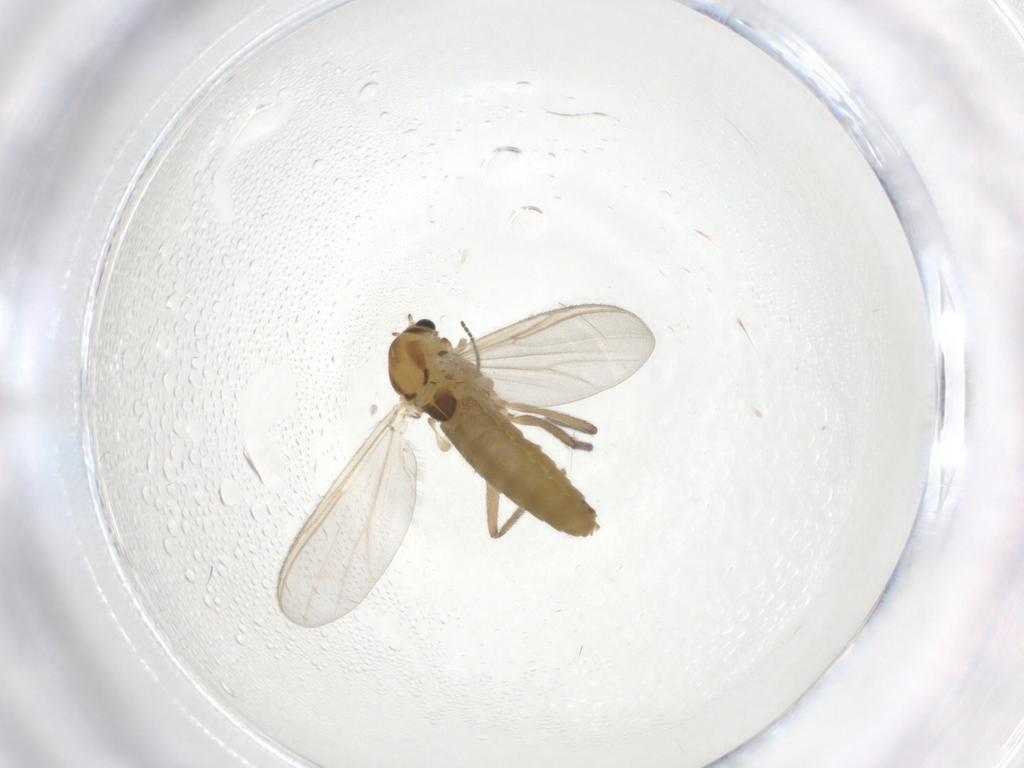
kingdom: Animalia
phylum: Arthropoda
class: Insecta
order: Diptera
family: Chironomidae
